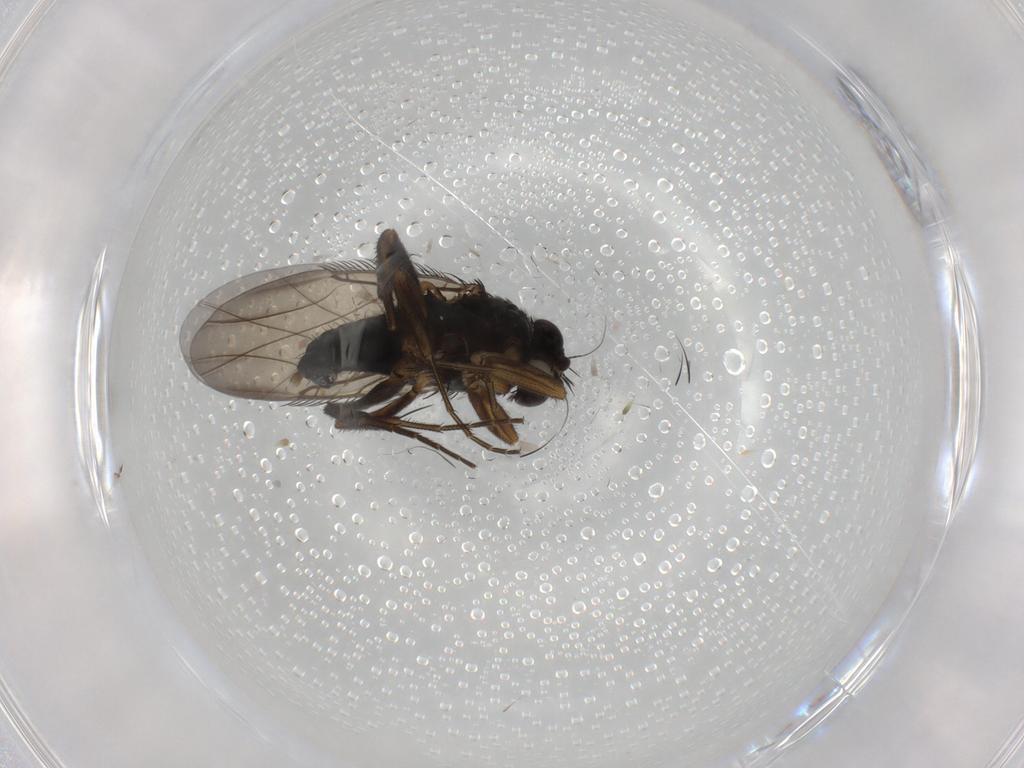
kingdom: Animalia
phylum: Arthropoda
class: Insecta
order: Diptera
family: Phoridae
